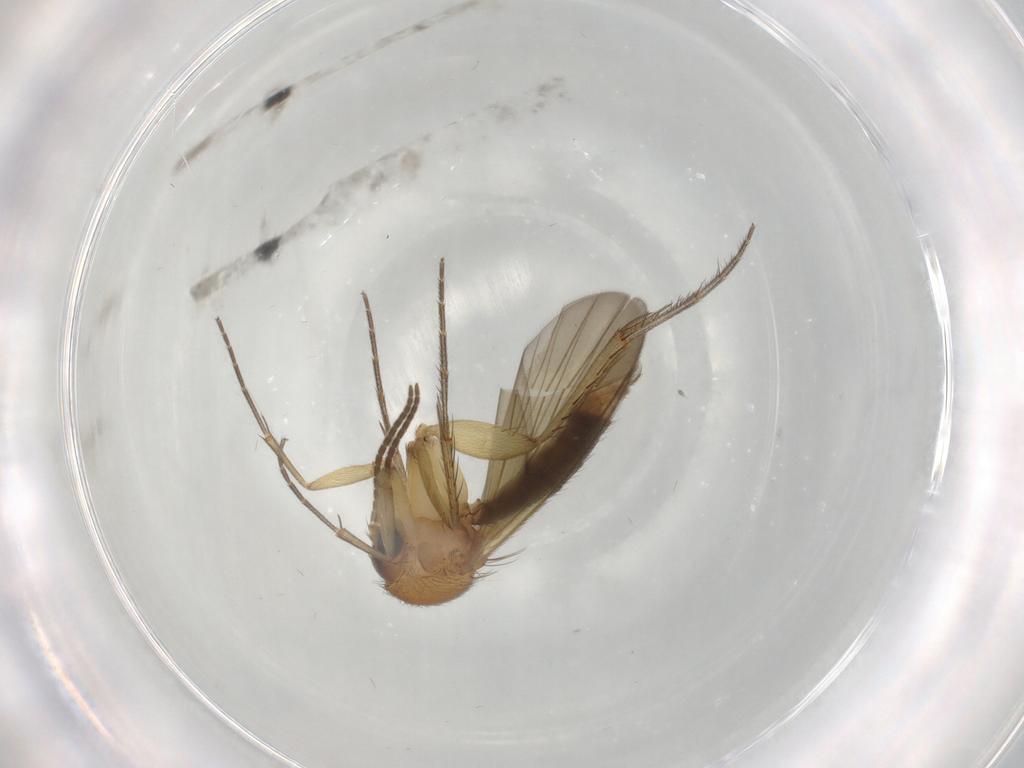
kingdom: Animalia
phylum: Arthropoda
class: Insecta
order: Diptera
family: Mycetophilidae
